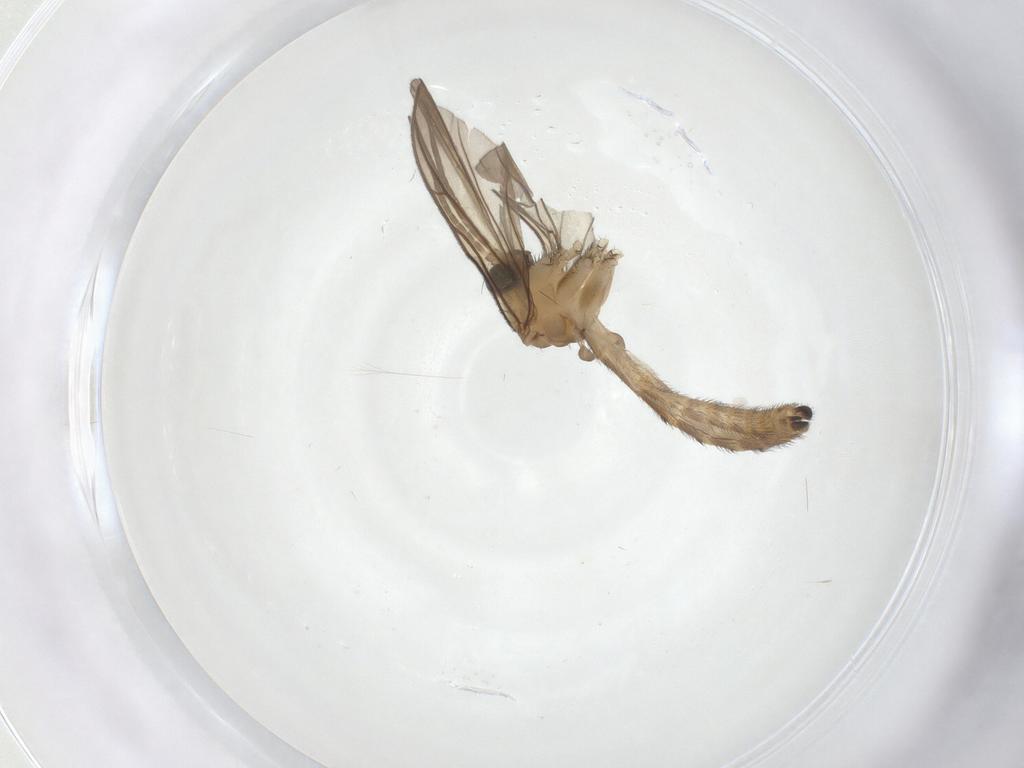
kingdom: Animalia
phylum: Arthropoda
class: Insecta
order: Diptera
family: Keroplatidae
